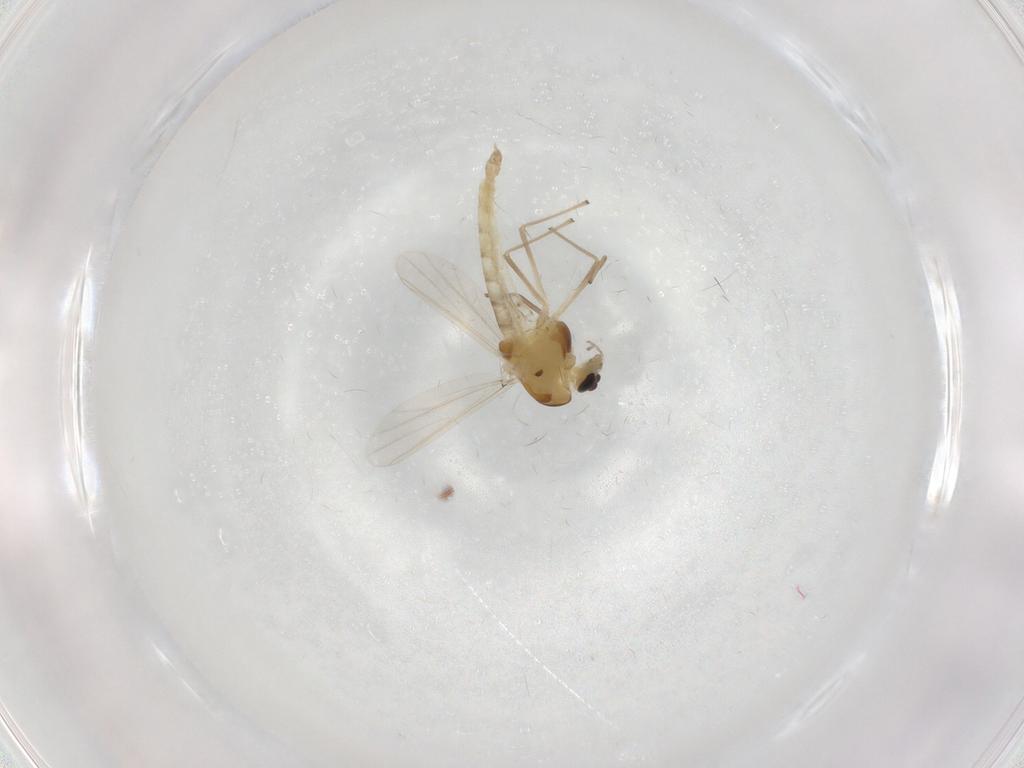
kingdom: Animalia
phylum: Arthropoda
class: Insecta
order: Diptera
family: Chironomidae
